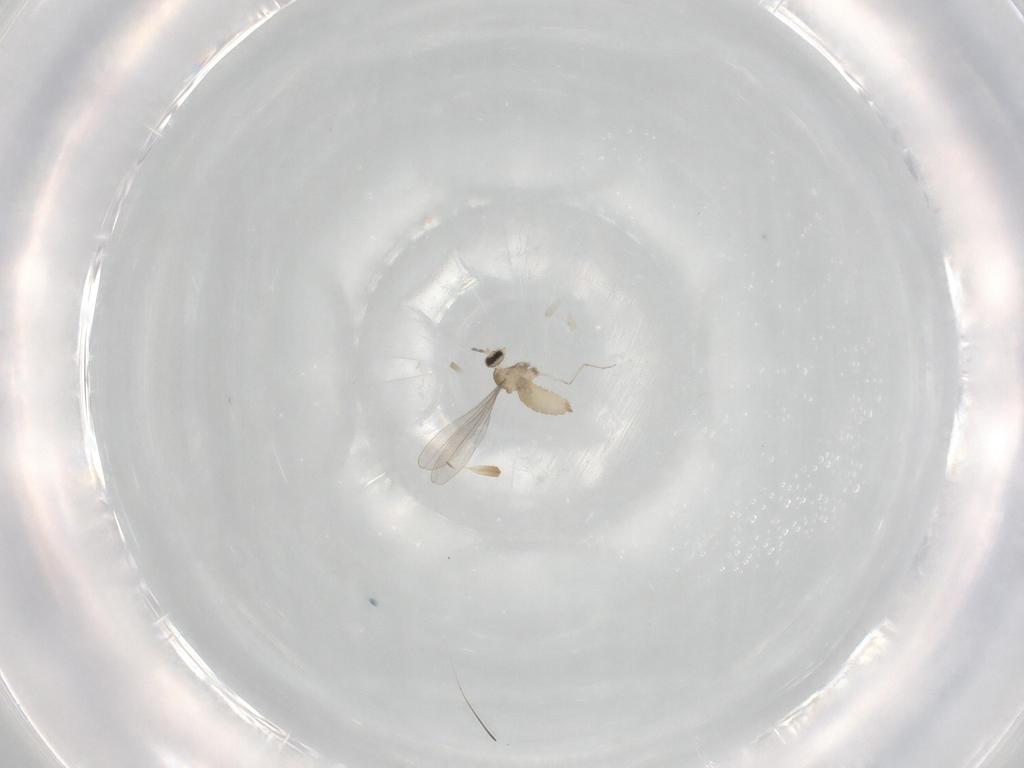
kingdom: Animalia
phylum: Arthropoda
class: Insecta
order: Diptera
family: Cecidomyiidae
